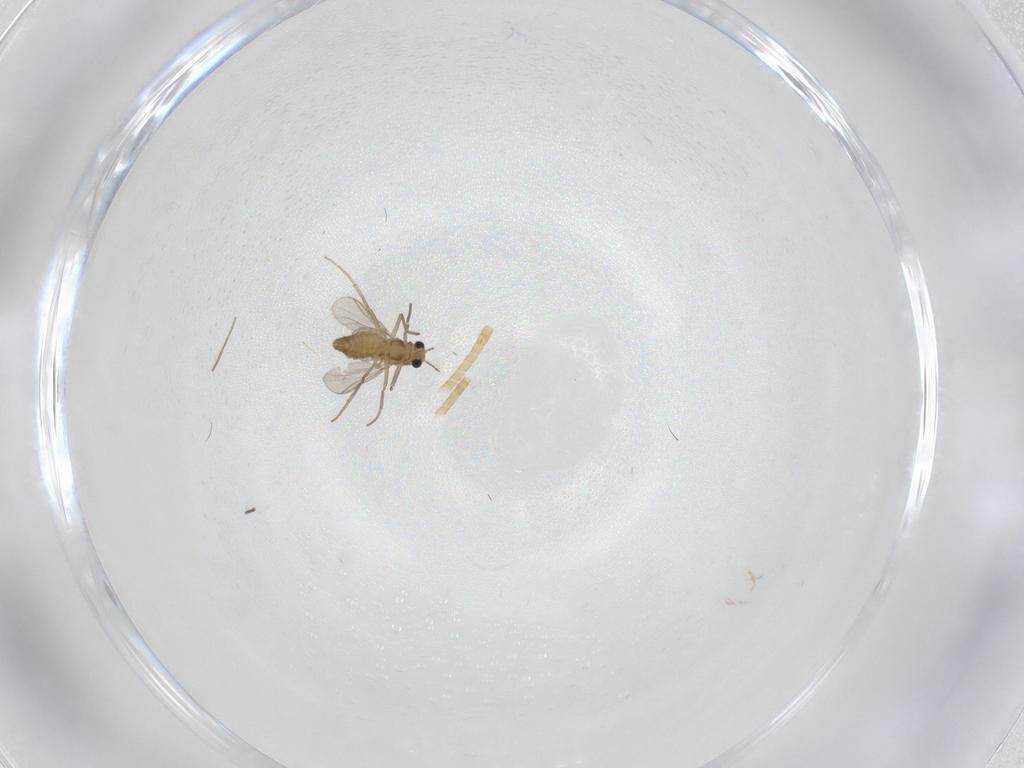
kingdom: Animalia
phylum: Arthropoda
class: Insecta
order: Diptera
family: Chironomidae
